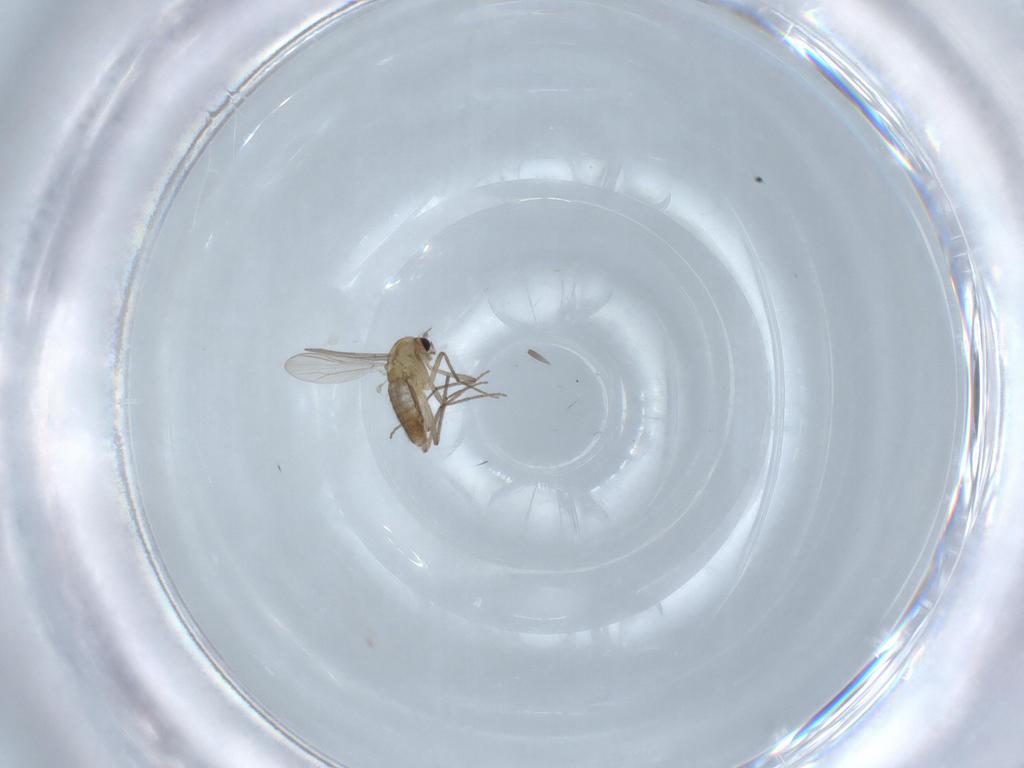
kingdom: Animalia
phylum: Arthropoda
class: Insecta
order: Diptera
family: Chironomidae
